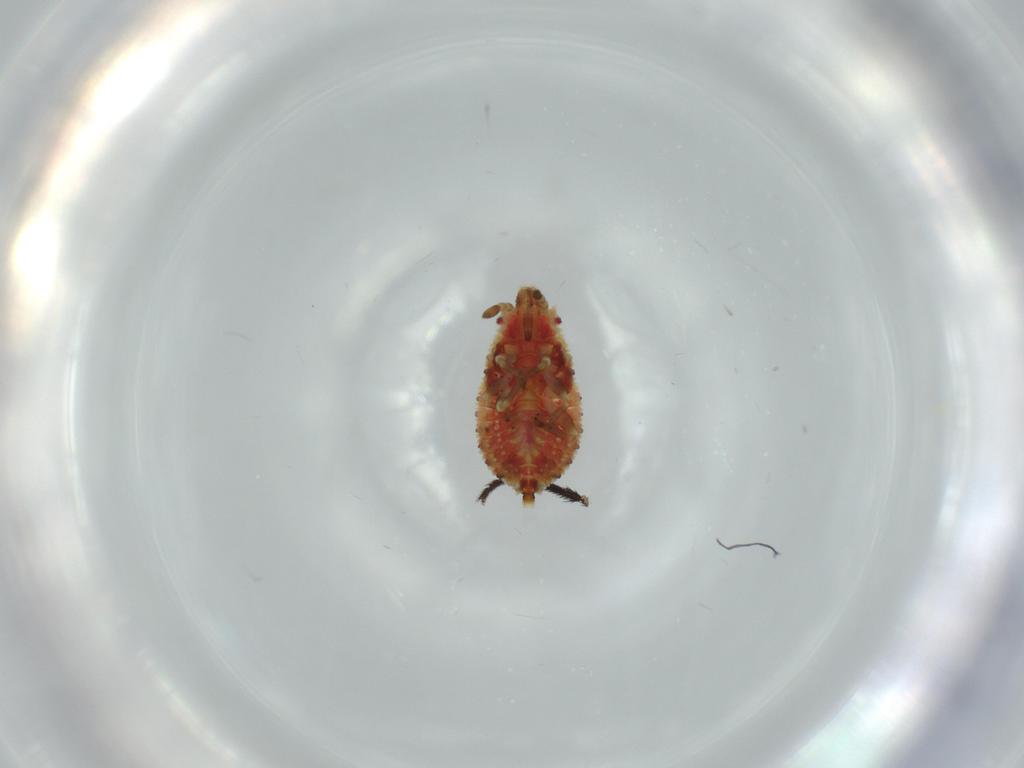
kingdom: Animalia
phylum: Arthropoda
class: Insecta
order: Hemiptera
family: Aradidae
